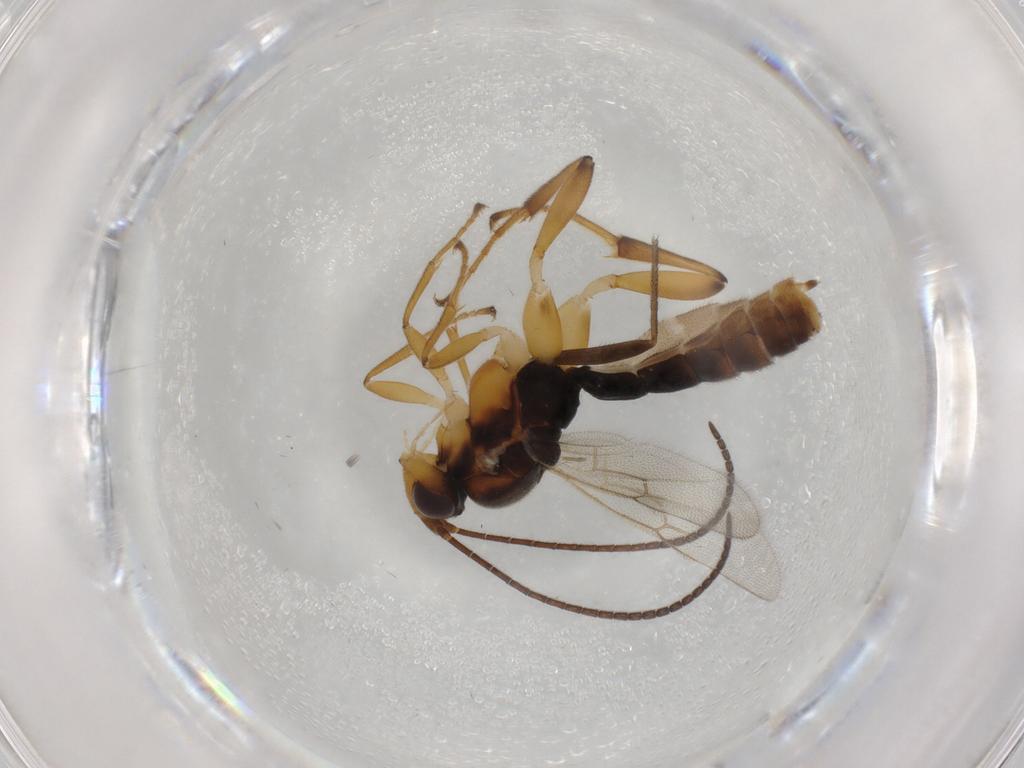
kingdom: Animalia
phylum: Arthropoda
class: Insecta
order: Hymenoptera
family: Ichneumonidae
